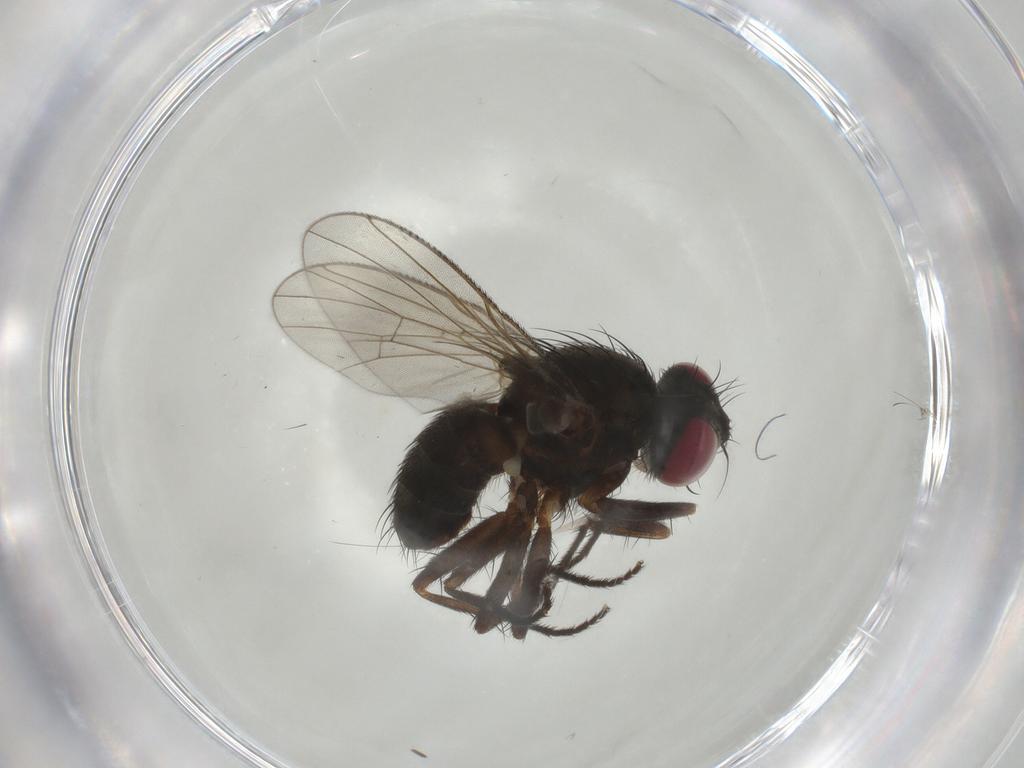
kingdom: Animalia
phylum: Arthropoda
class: Insecta
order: Diptera
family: Muscidae
